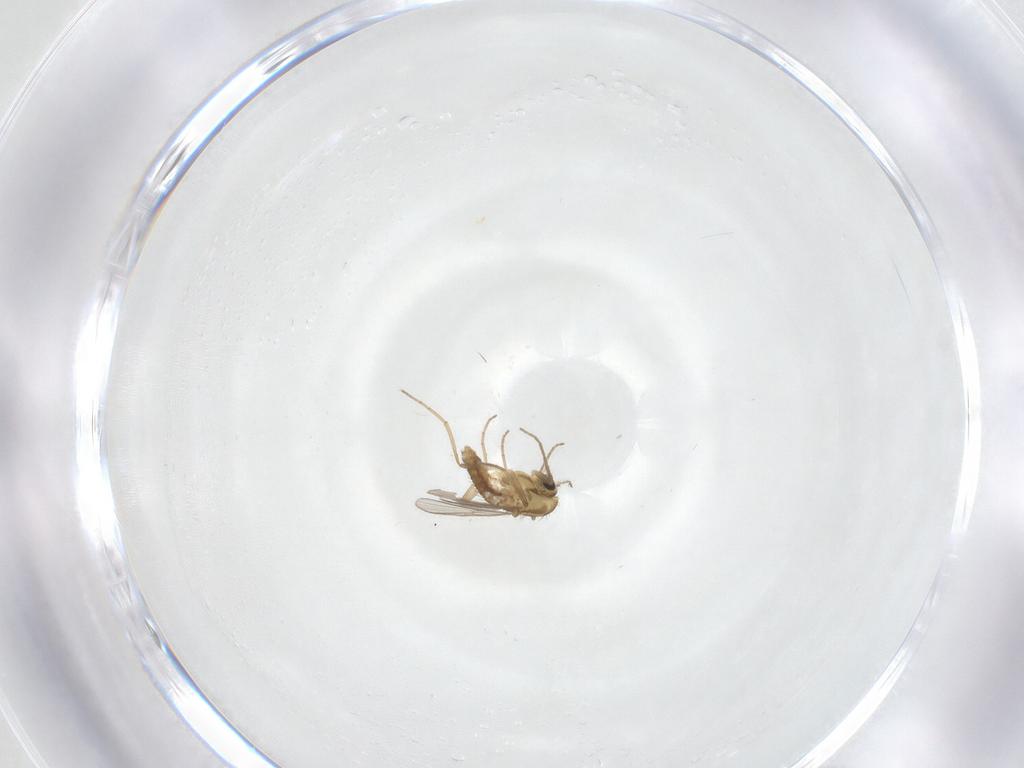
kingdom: Animalia
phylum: Arthropoda
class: Insecta
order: Diptera
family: Chironomidae
